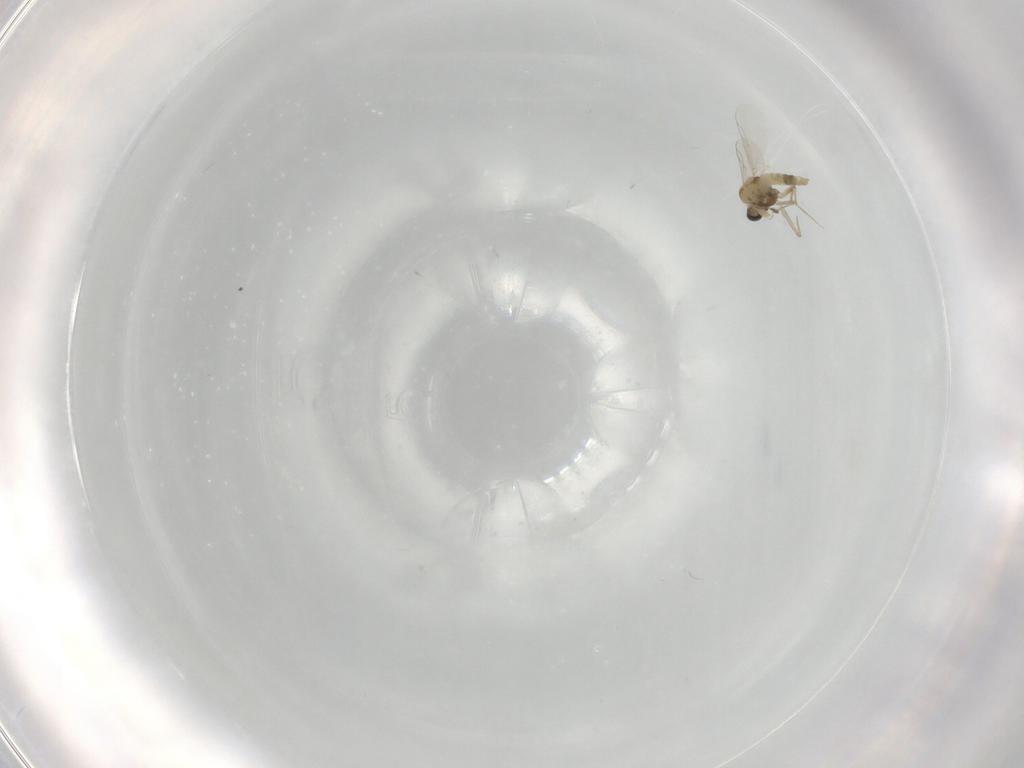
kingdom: Animalia
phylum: Arthropoda
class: Insecta
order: Diptera
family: Chironomidae
